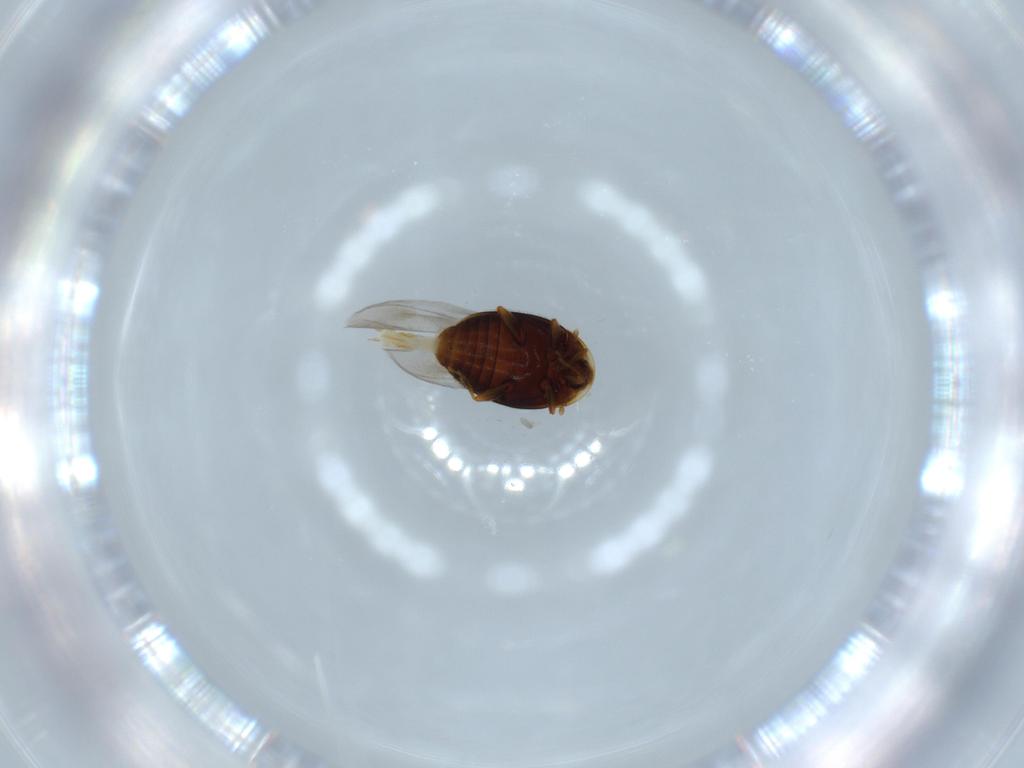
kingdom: Animalia
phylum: Arthropoda
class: Insecta
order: Coleoptera
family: Corylophidae
